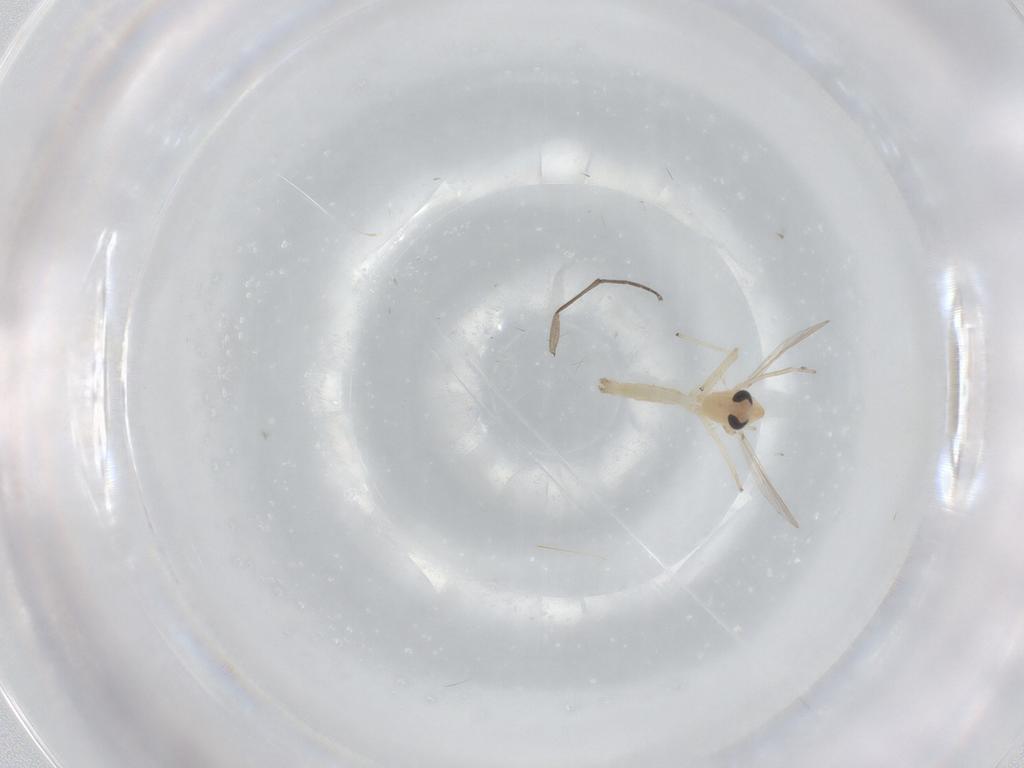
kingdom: Animalia
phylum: Arthropoda
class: Insecta
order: Diptera
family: Chironomidae
